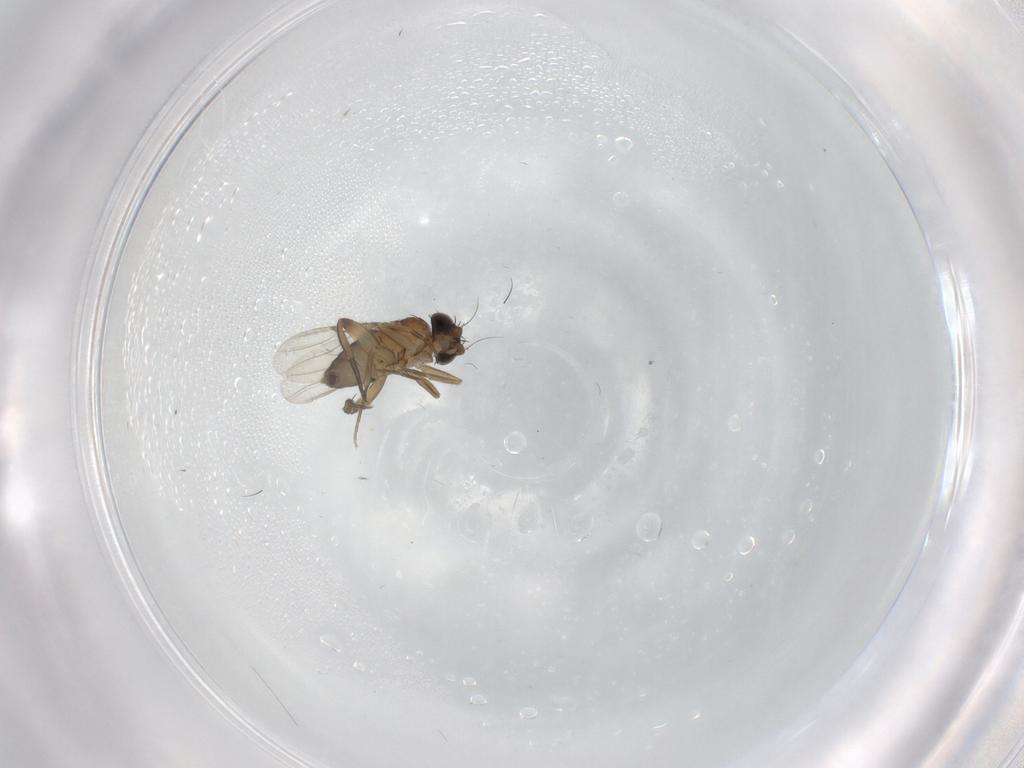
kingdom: Animalia
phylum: Arthropoda
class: Insecta
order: Diptera
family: Phoridae
